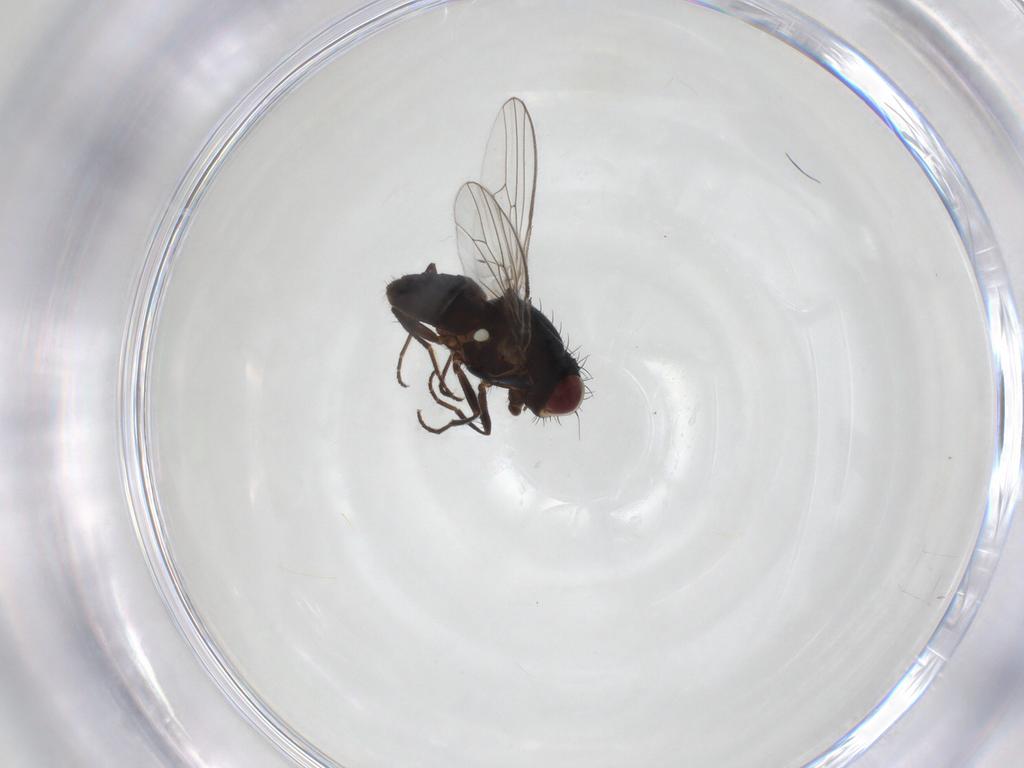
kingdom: Animalia
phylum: Arthropoda
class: Insecta
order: Diptera
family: Carnidae
